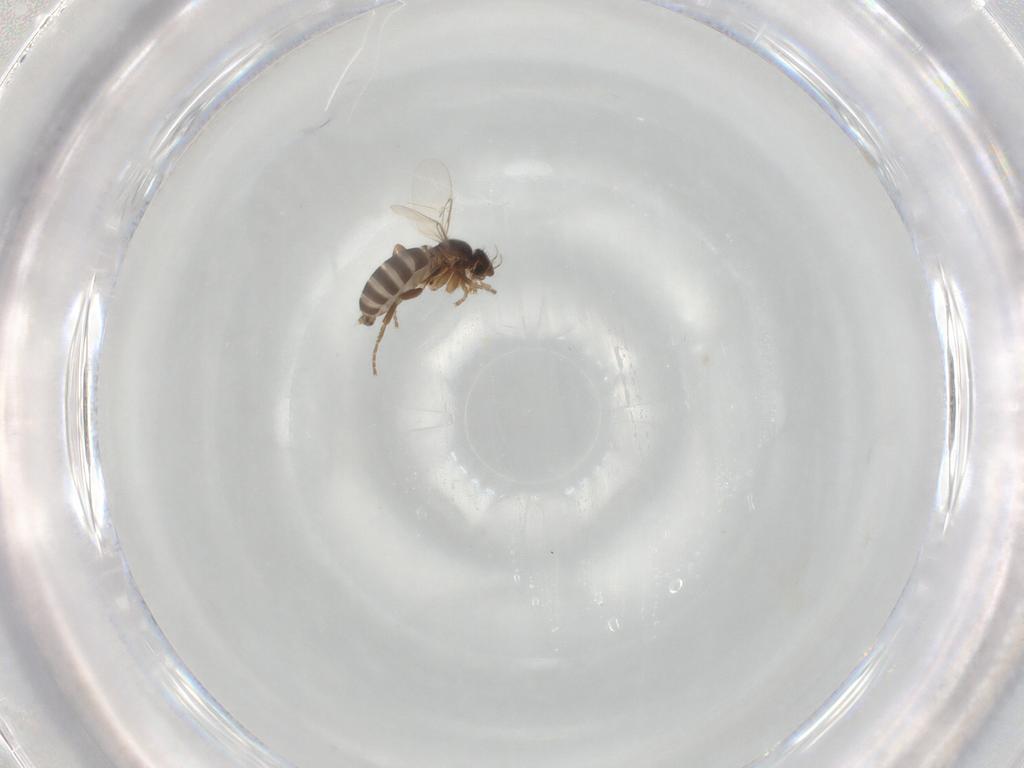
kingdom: Animalia
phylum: Arthropoda
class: Insecta
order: Diptera
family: Phoridae
